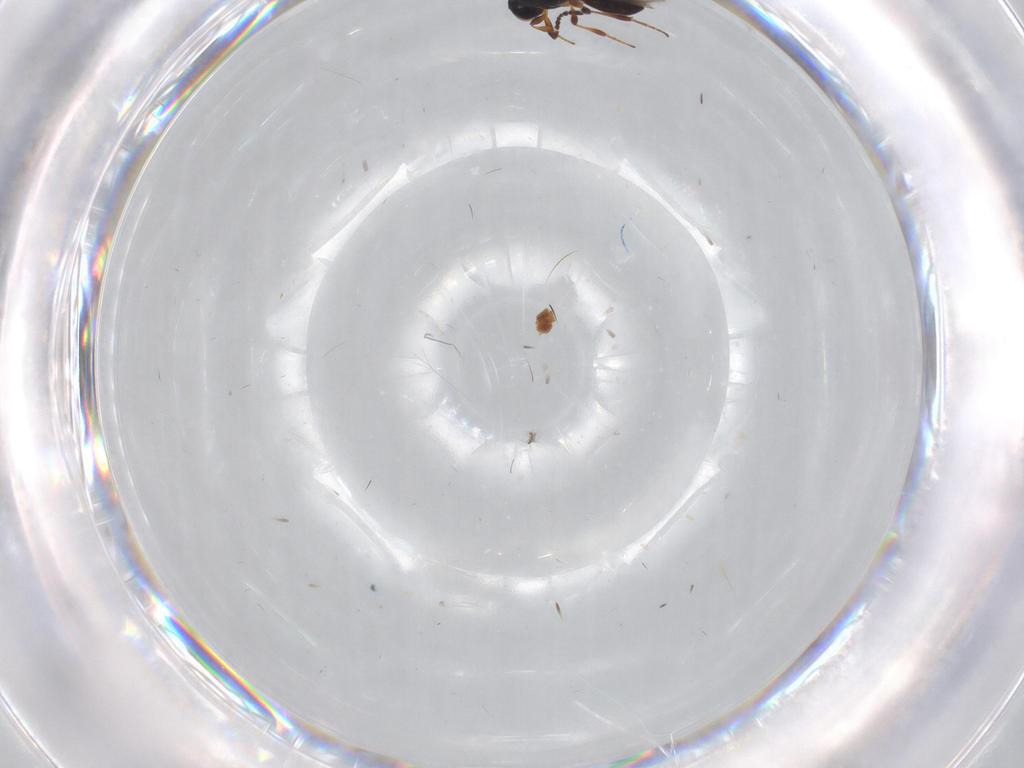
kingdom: Animalia
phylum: Arthropoda
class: Insecta
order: Hymenoptera
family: Platygastridae
